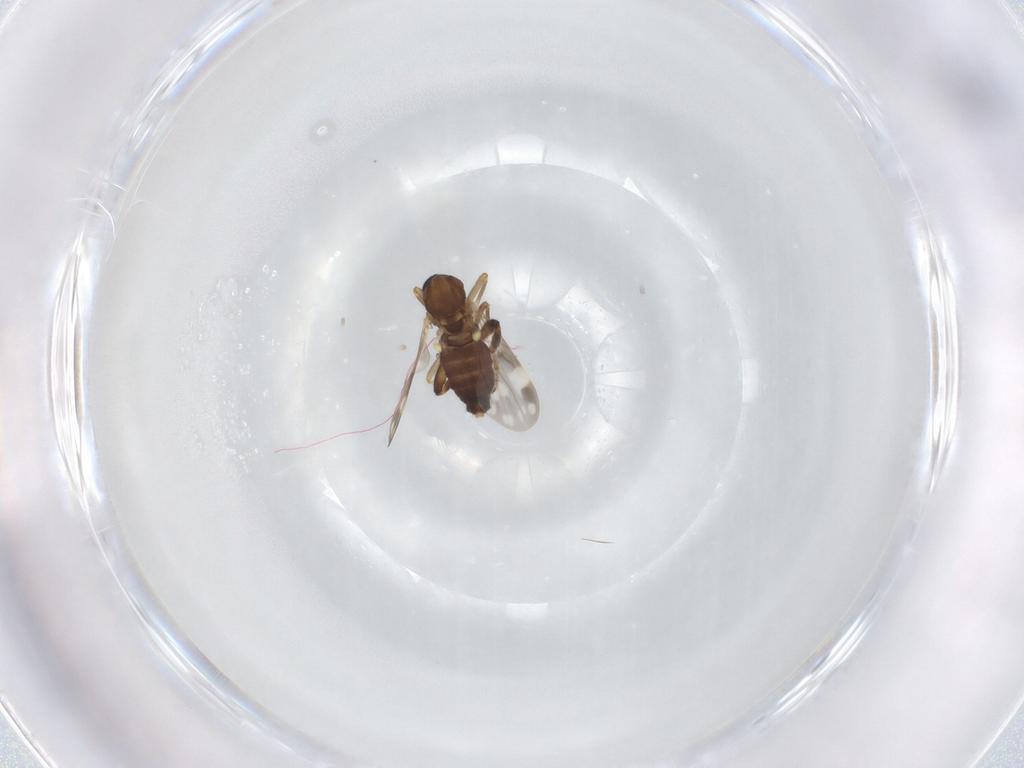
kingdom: Animalia
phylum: Arthropoda
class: Insecta
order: Diptera
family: Ceratopogonidae
